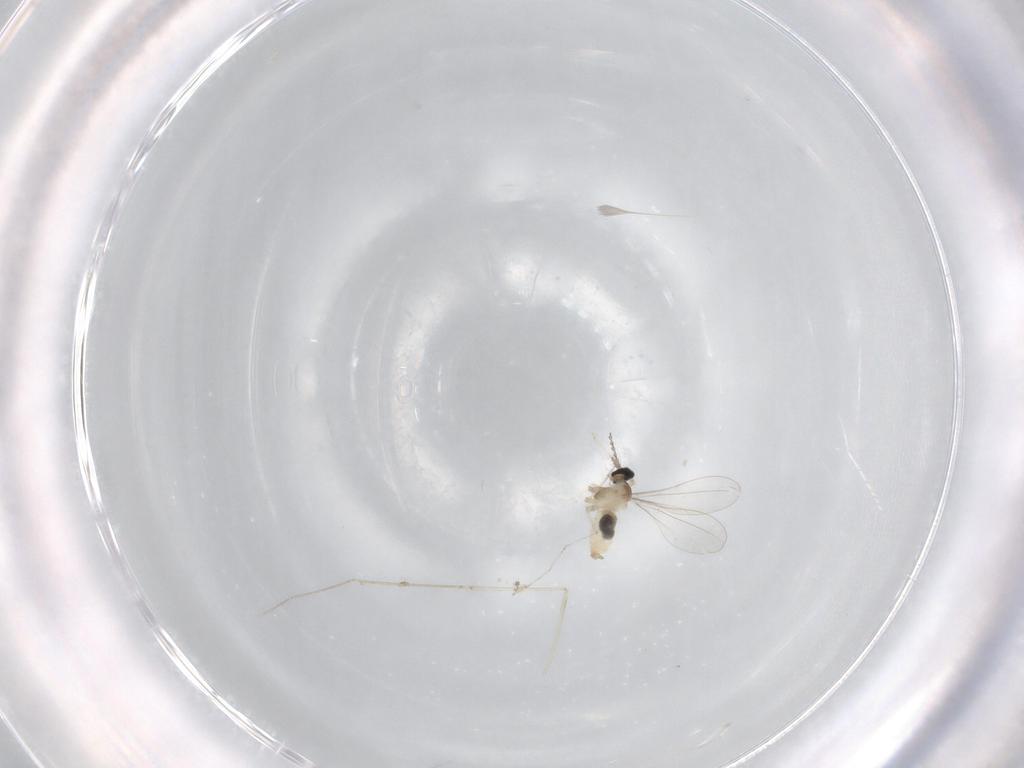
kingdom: Animalia
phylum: Arthropoda
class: Insecta
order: Diptera
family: Cecidomyiidae
